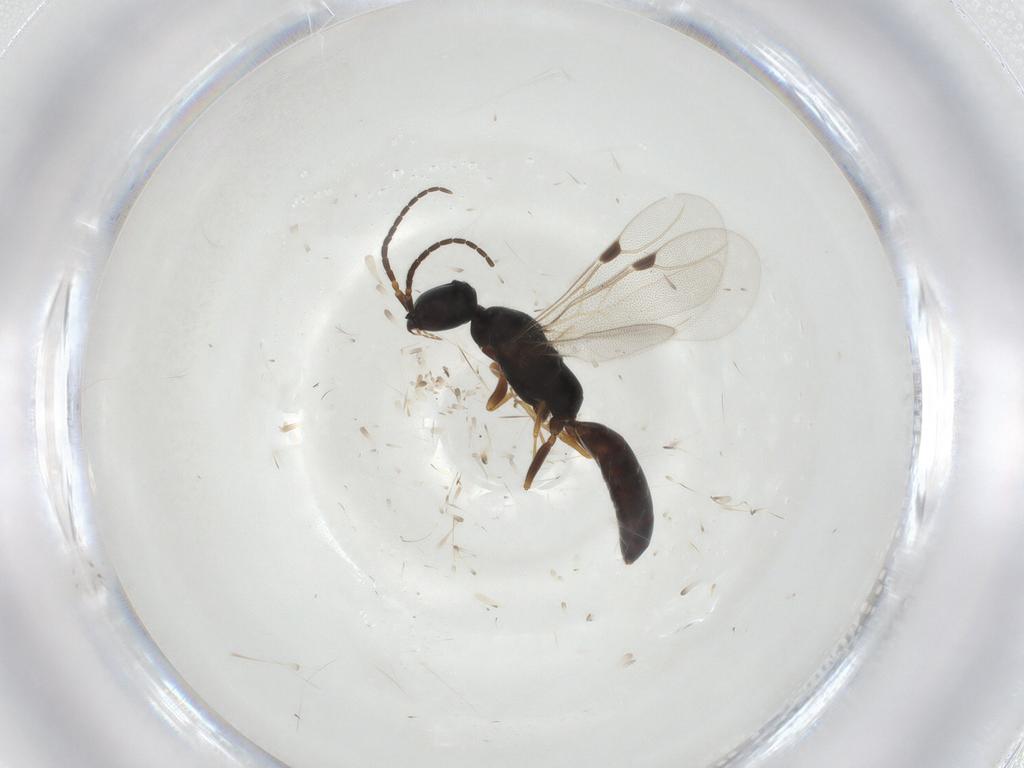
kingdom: Animalia
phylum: Arthropoda
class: Insecta
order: Hymenoptera
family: Bethylidae
